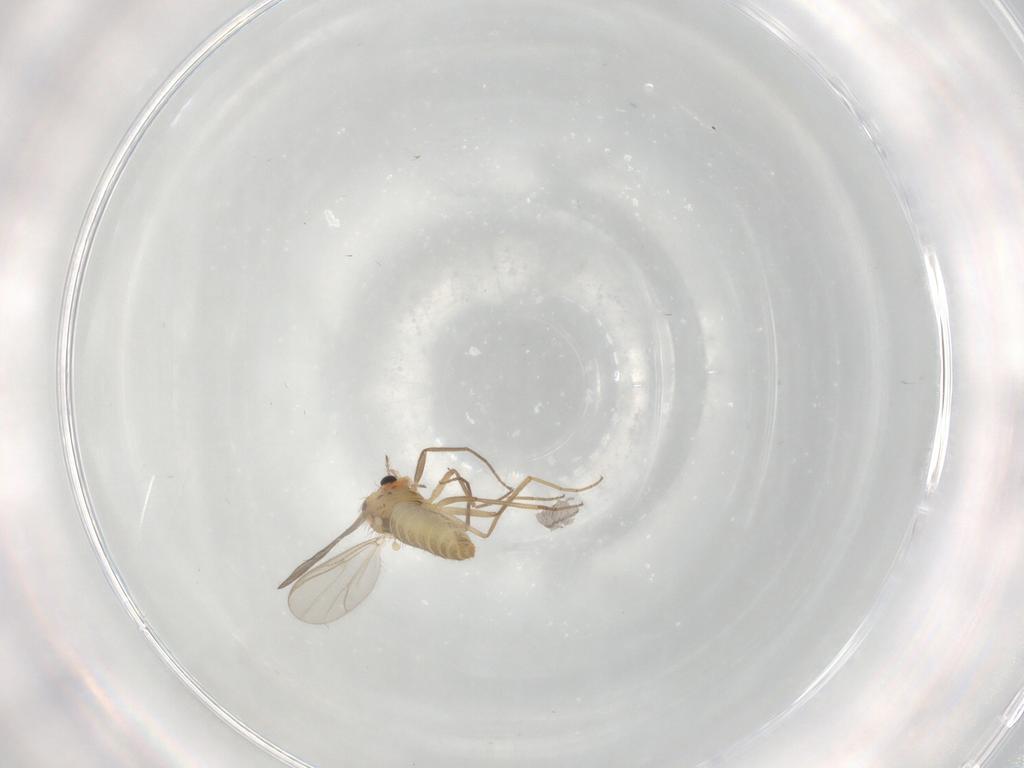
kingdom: Animalia
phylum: Arthropoda
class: Insecta
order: Diptera
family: Chironomidae
